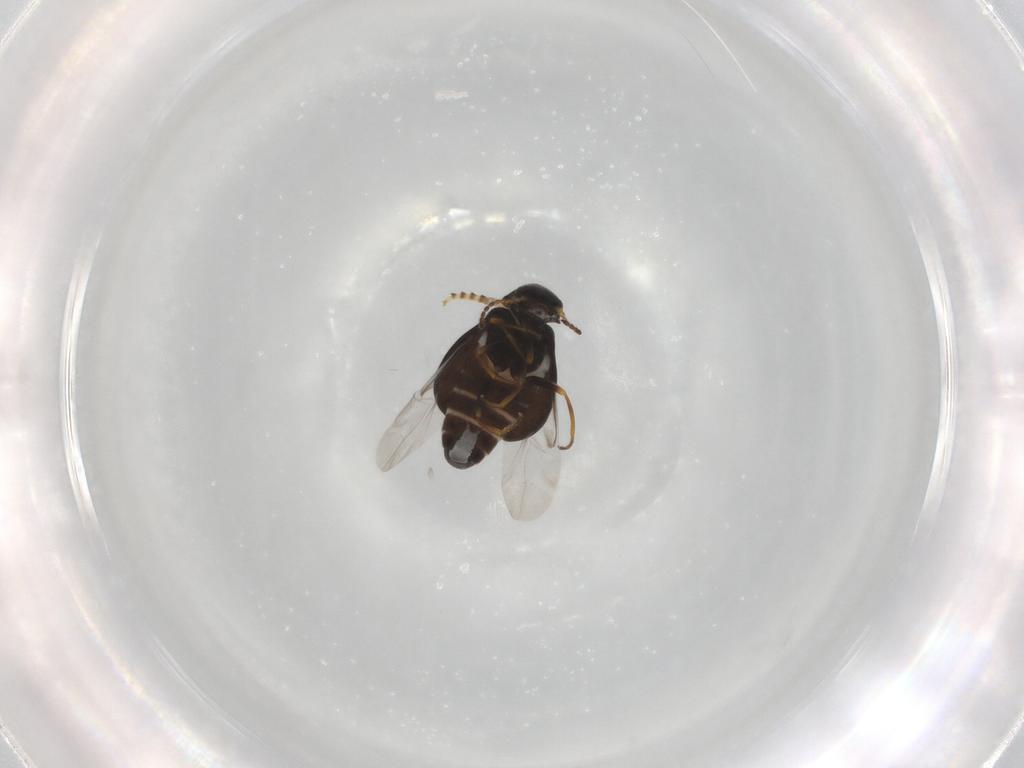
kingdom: Animalia
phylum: Arthropoda
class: Insecta
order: Coleoptera
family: Melyridae
